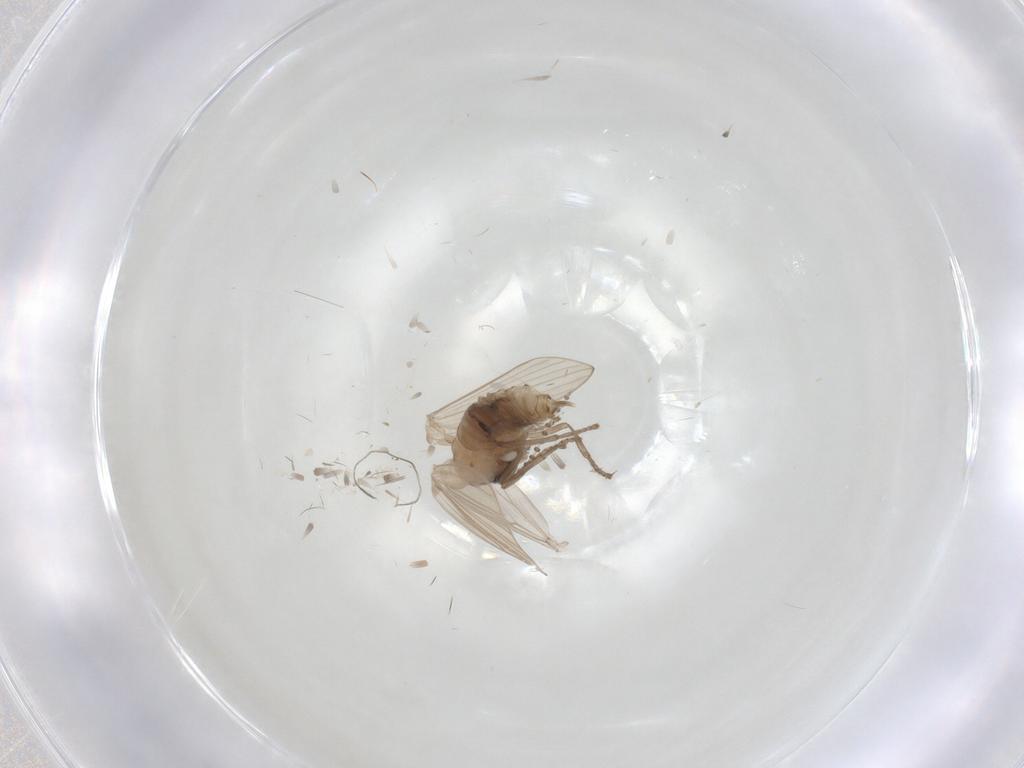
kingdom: Animalia
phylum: Arthropoda
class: Insecta
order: Diptera
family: Psychodidae
